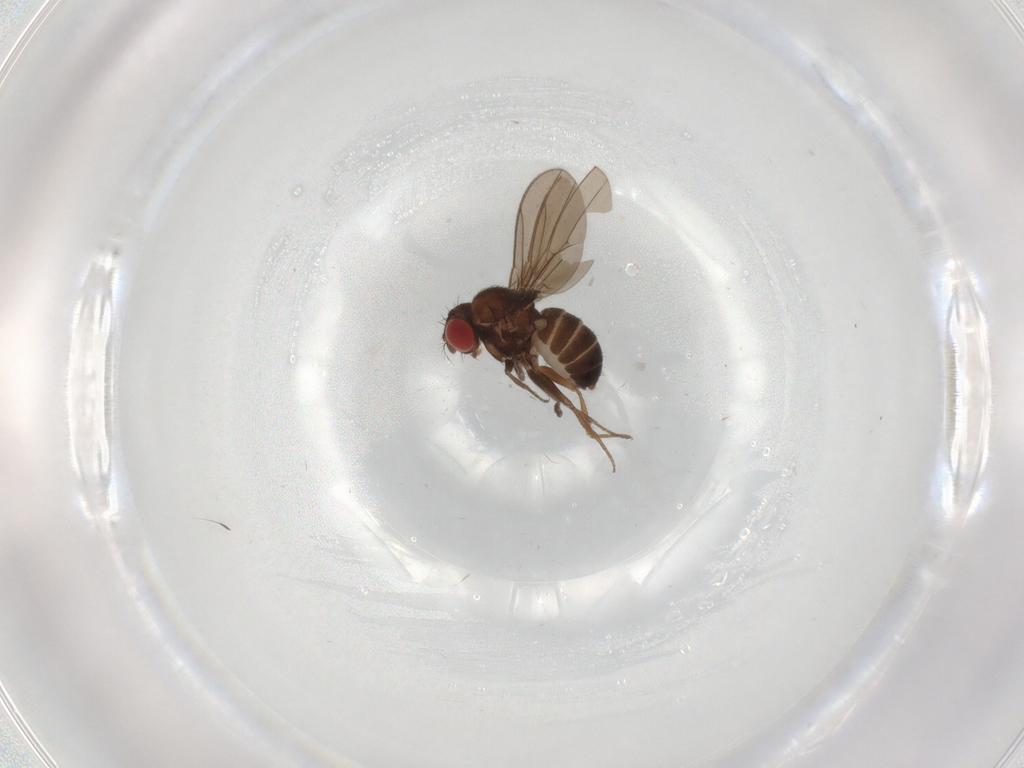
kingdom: Animalia
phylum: Arthropoda
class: Insecta
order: Diptera
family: Drosophilidae
